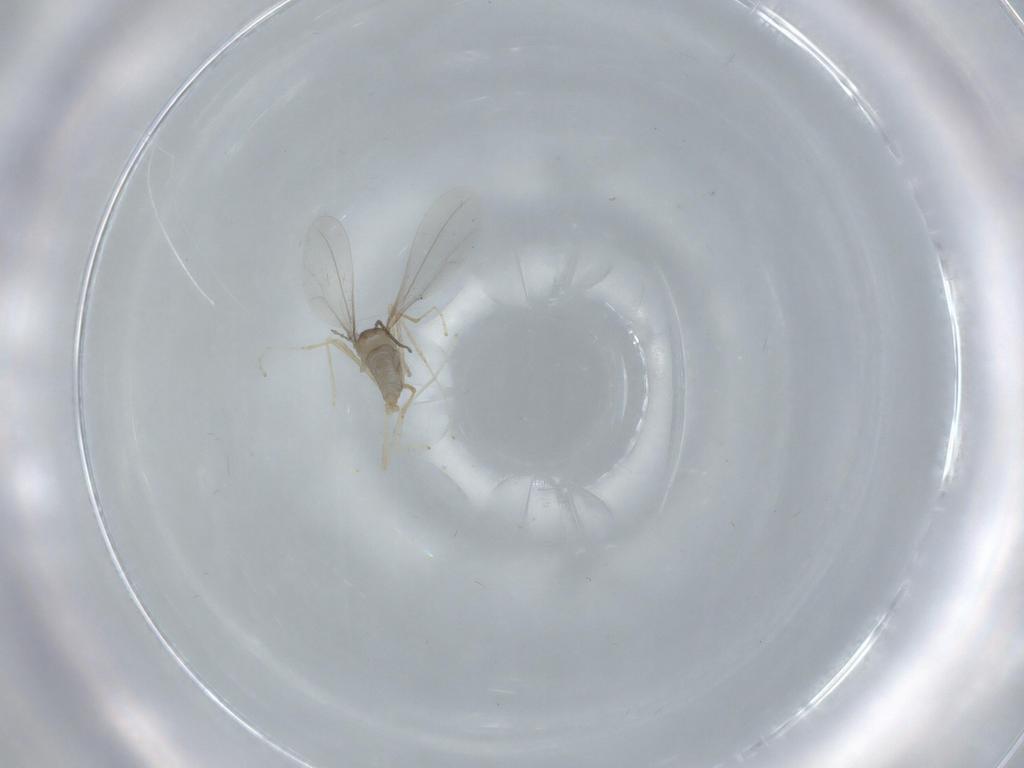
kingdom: Animalia
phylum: Arthropoda
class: Insecta
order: Diptera
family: Cecidomyiidae
